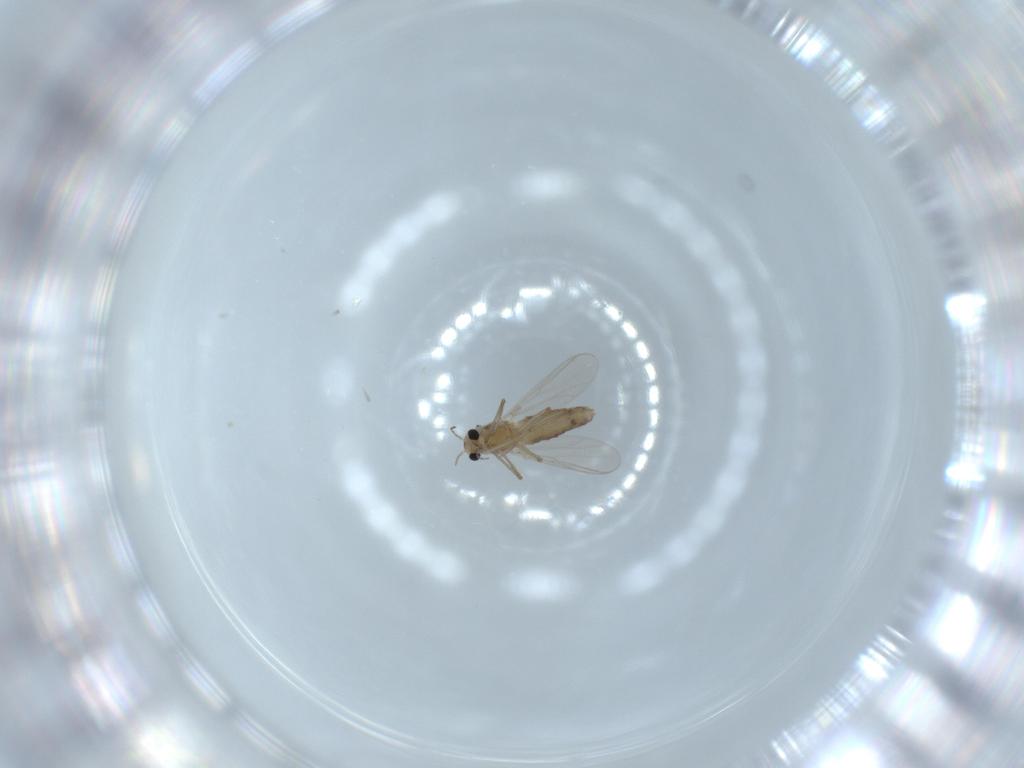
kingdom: Animalia
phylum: Arthropoda
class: Insecta
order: Diptera
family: Chironomidae
